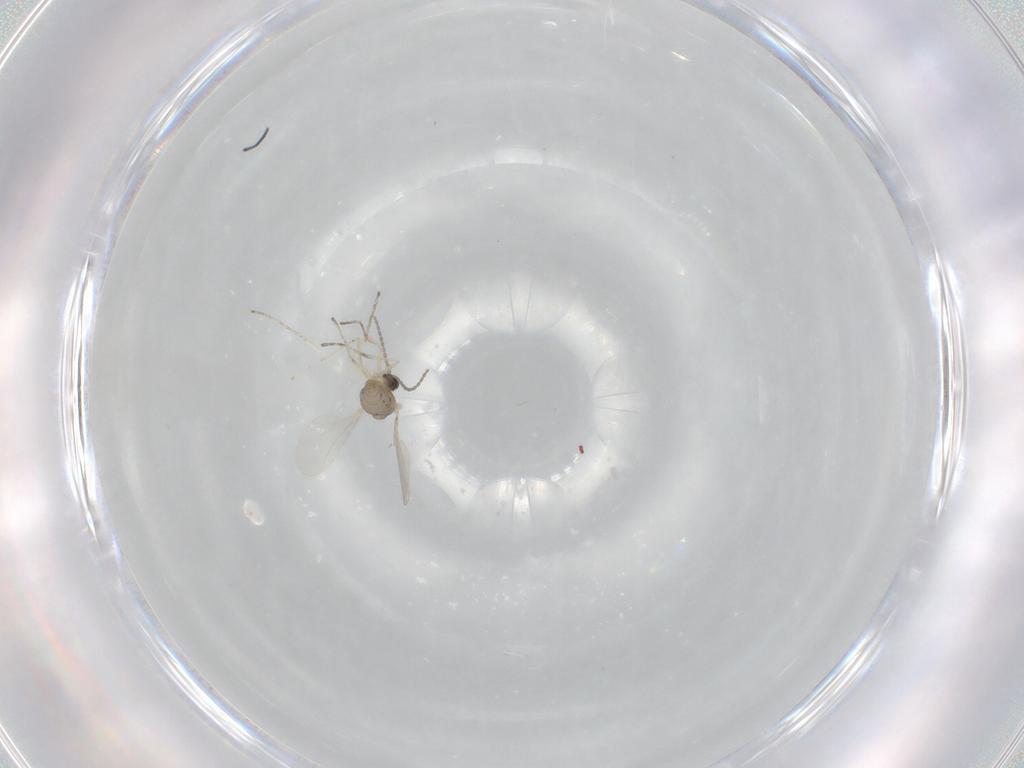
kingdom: Animalia
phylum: Arthropoda
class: Insecta
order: Diptera
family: Cecidomyiidae
